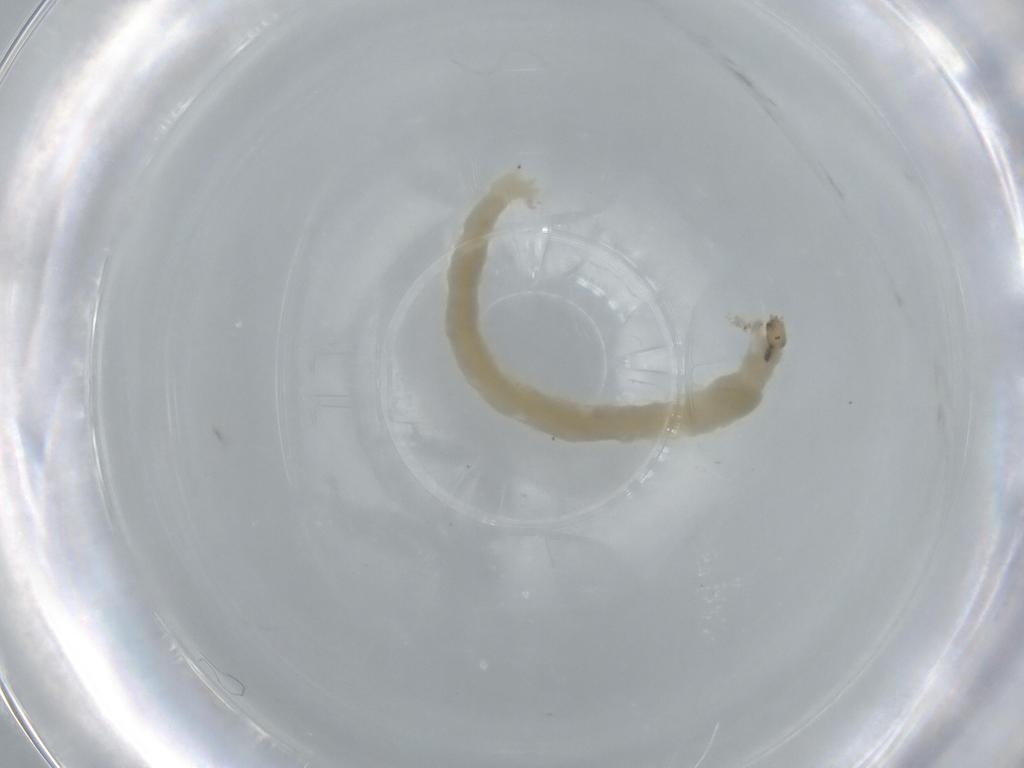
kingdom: Animalia
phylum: Arthropoda
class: Insecta
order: Diptera
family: Chironomidae
